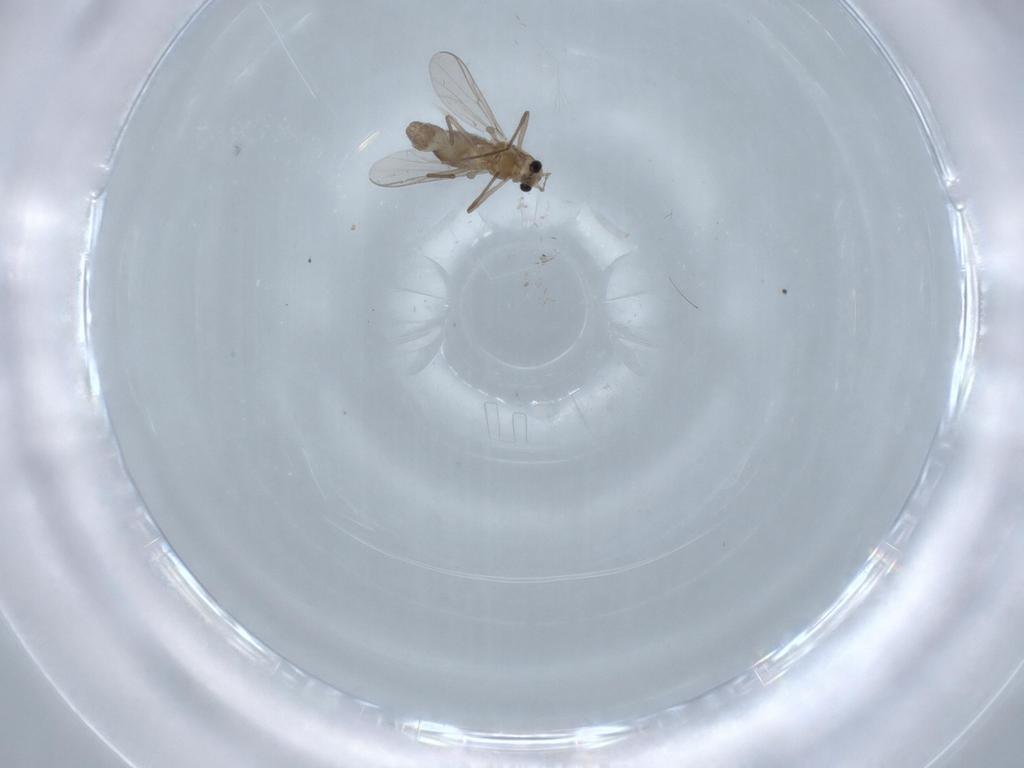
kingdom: Animalia
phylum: Arthropoda
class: Insecta
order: Diptera
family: Chironomidae
